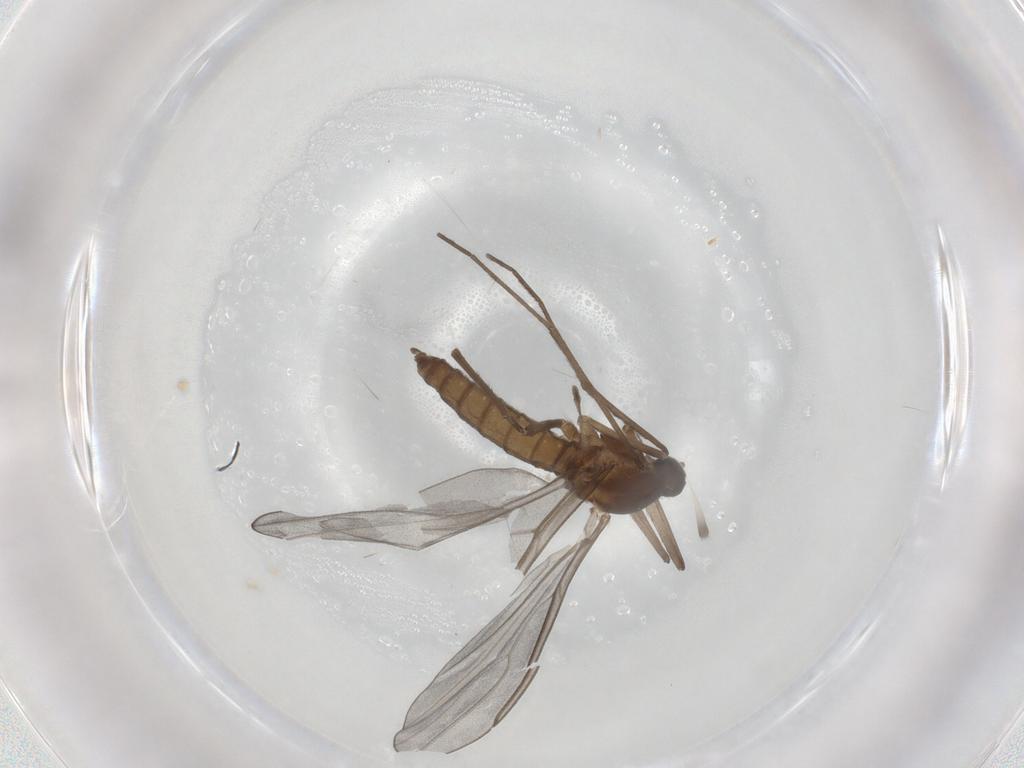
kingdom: Animalia
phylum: Arthropoda
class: Insecta
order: Diptera
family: Cecidomyiidae
